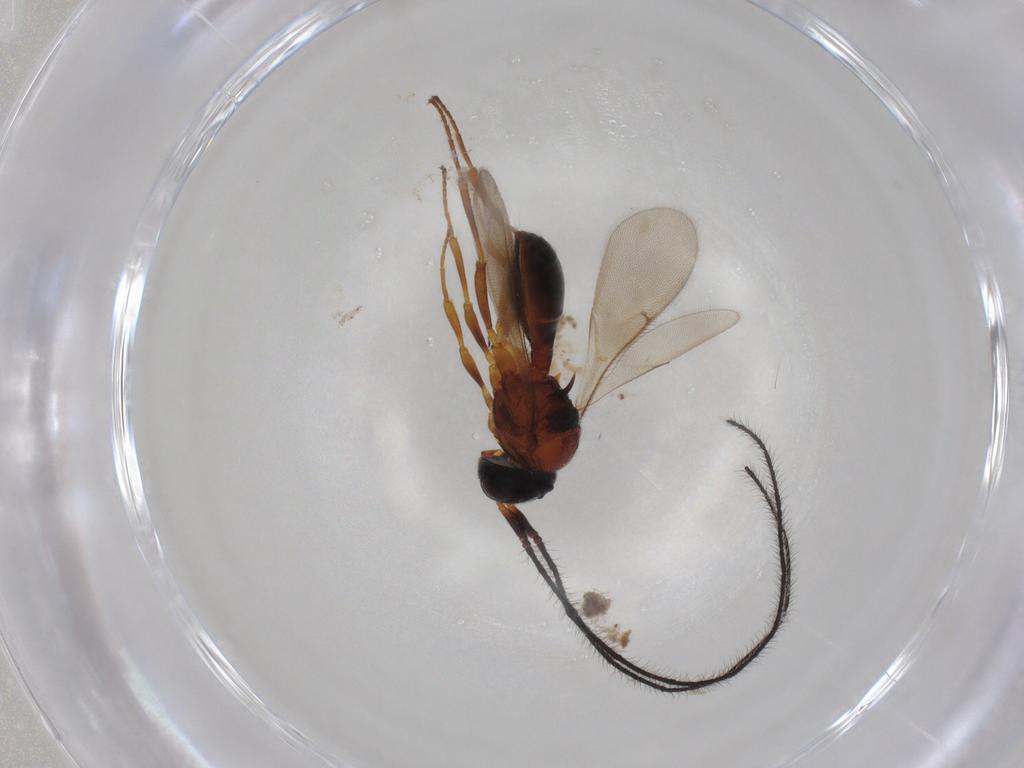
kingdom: Animalia
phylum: Arthropoda
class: Insecta
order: Hymenoptera
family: Scelionidae
